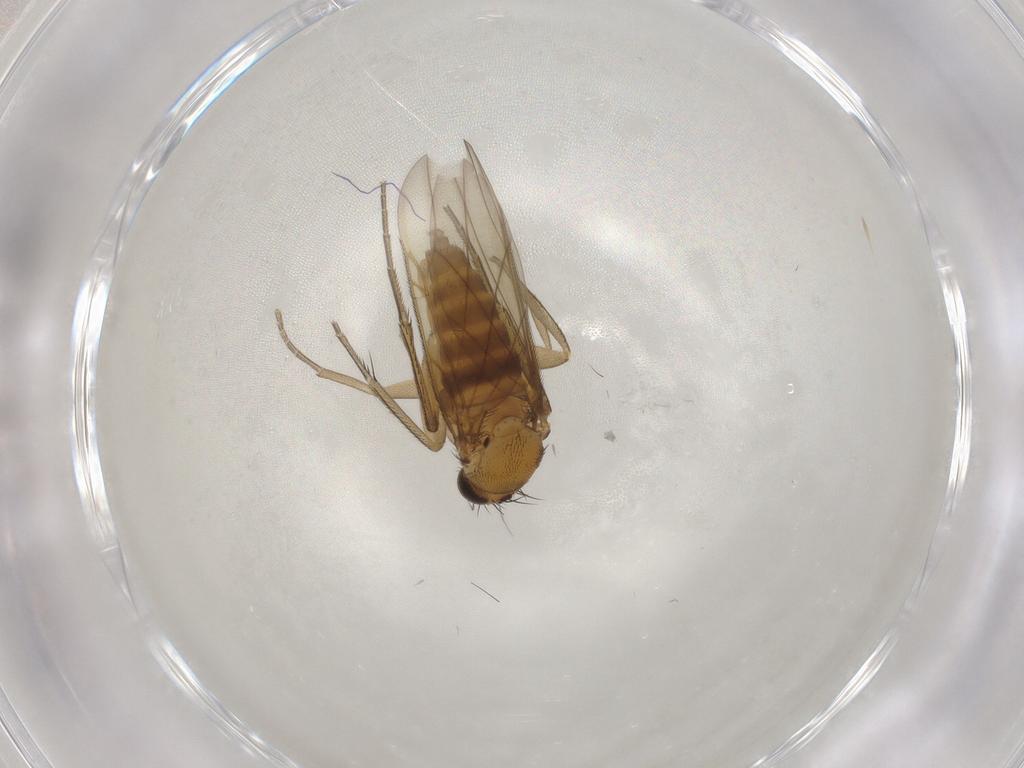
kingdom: Animalia
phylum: Arthropoda
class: Insecta
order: Diptera
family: Phoridae
